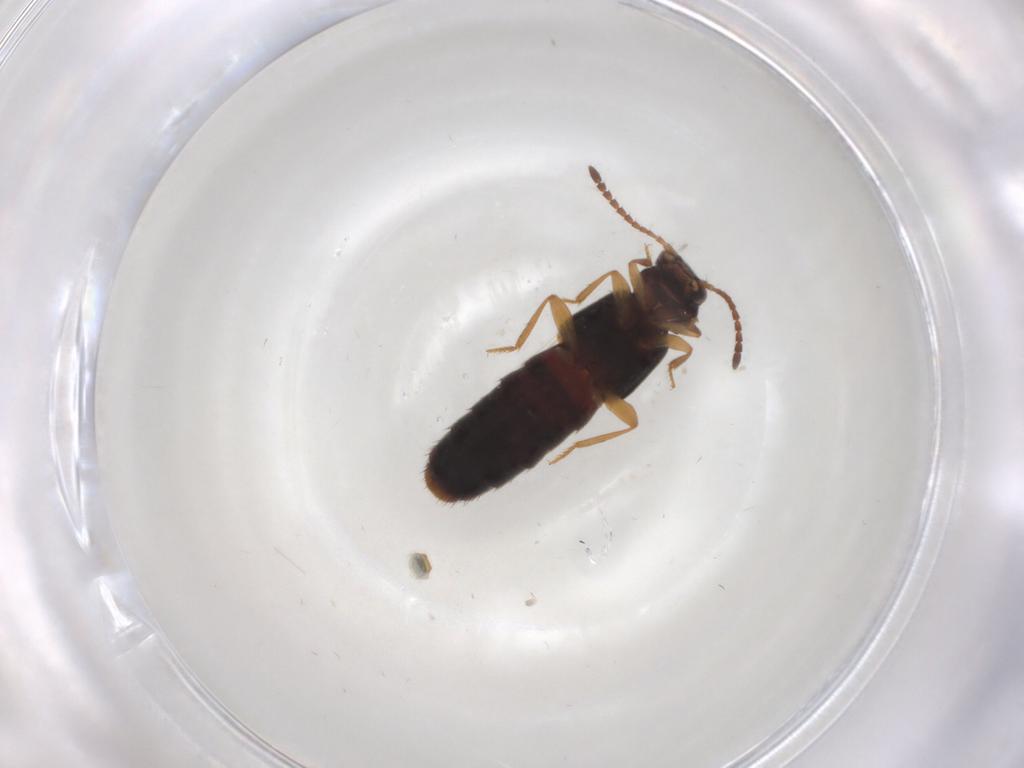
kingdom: Animalia
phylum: Arthropoda
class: Insecta
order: Coleoptera
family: Staphylinidae
